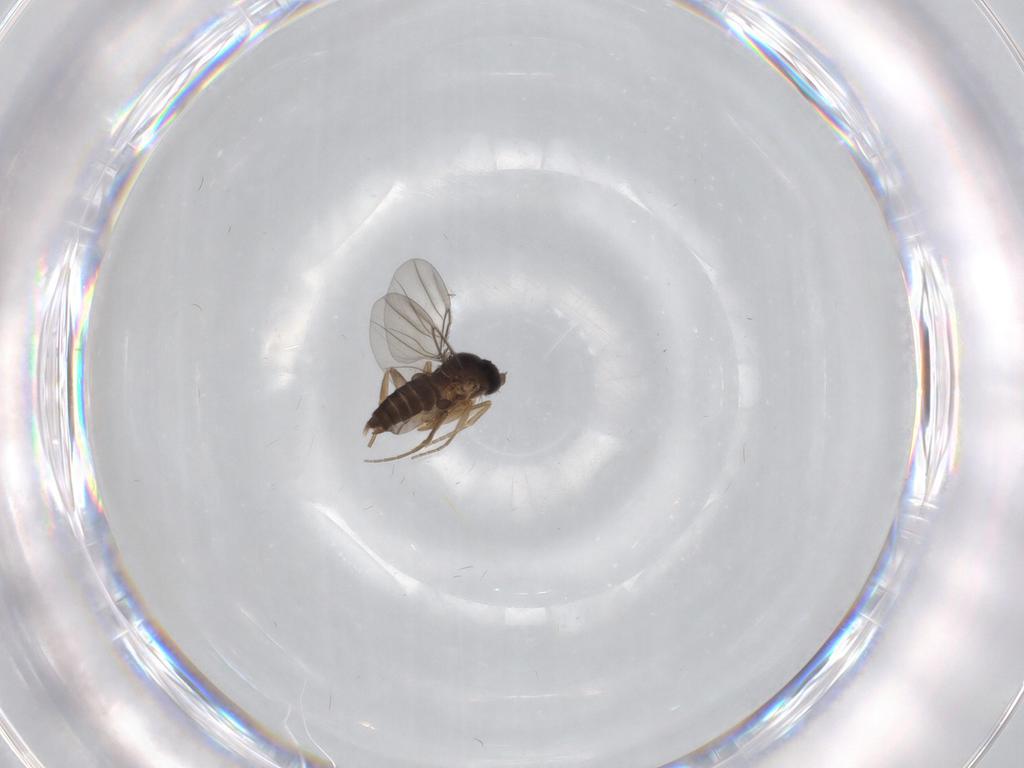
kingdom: Animalia
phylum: Arthropoda
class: Insecta
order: Diptera
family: Phoridae
